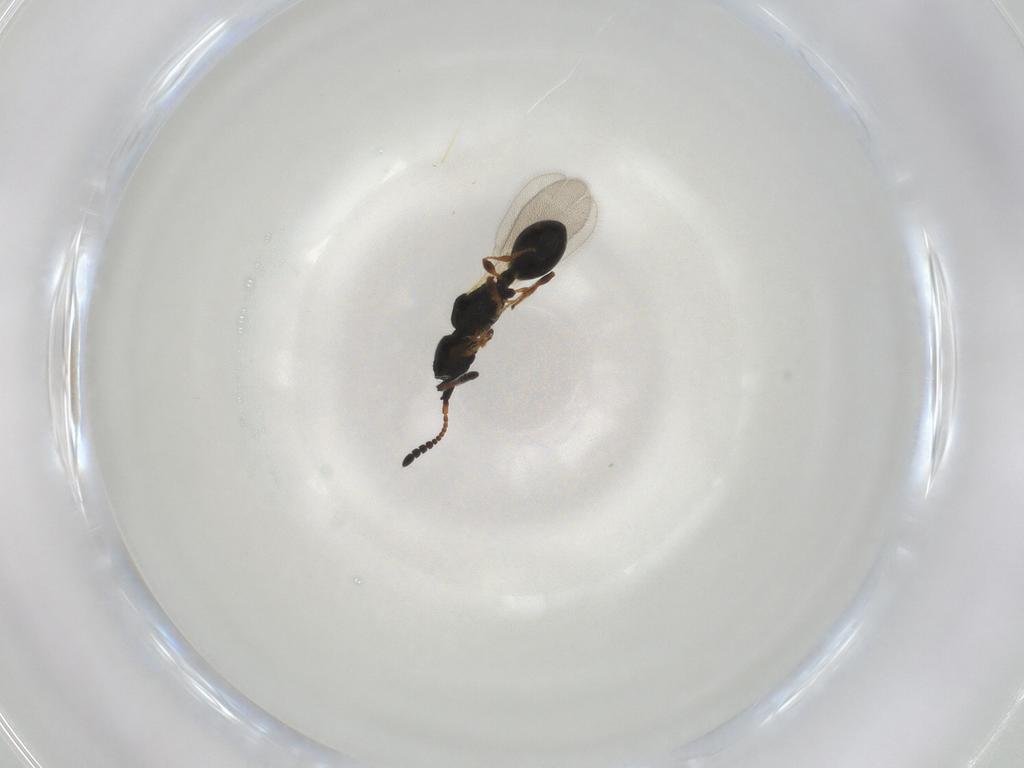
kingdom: Animalia
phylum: Arthropoda
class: Insecta
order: Hymenoptera
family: Diapriidae
